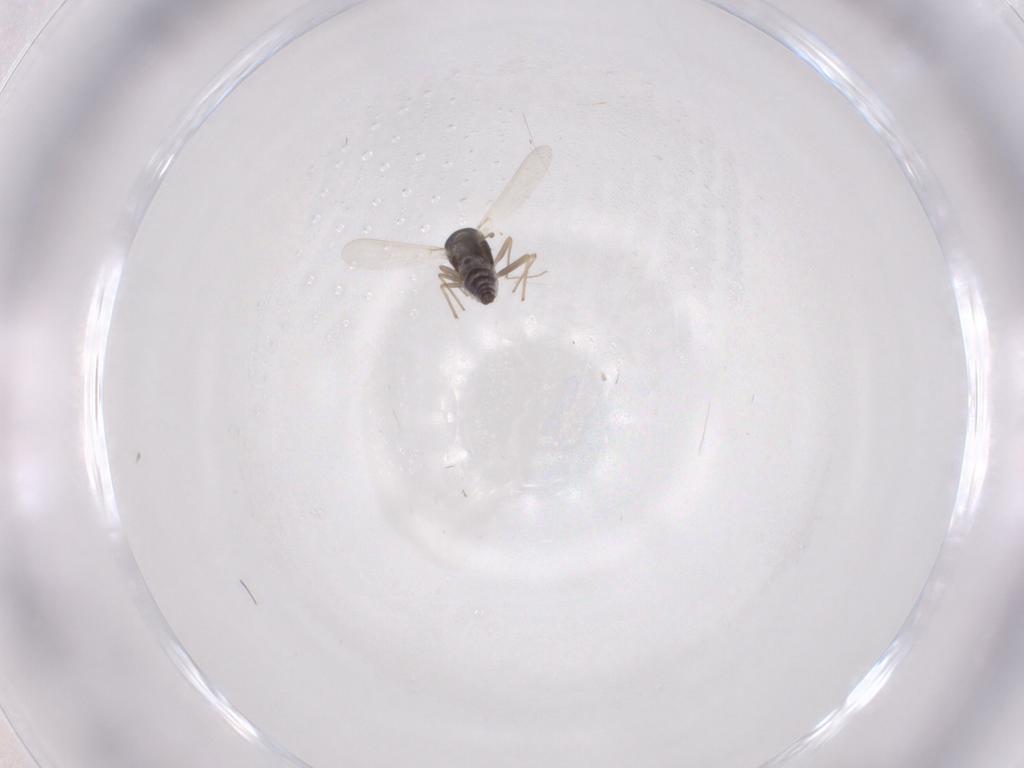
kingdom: Animalia
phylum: Arthropoda
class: Insecta
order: Diptera
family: Chironomidae
